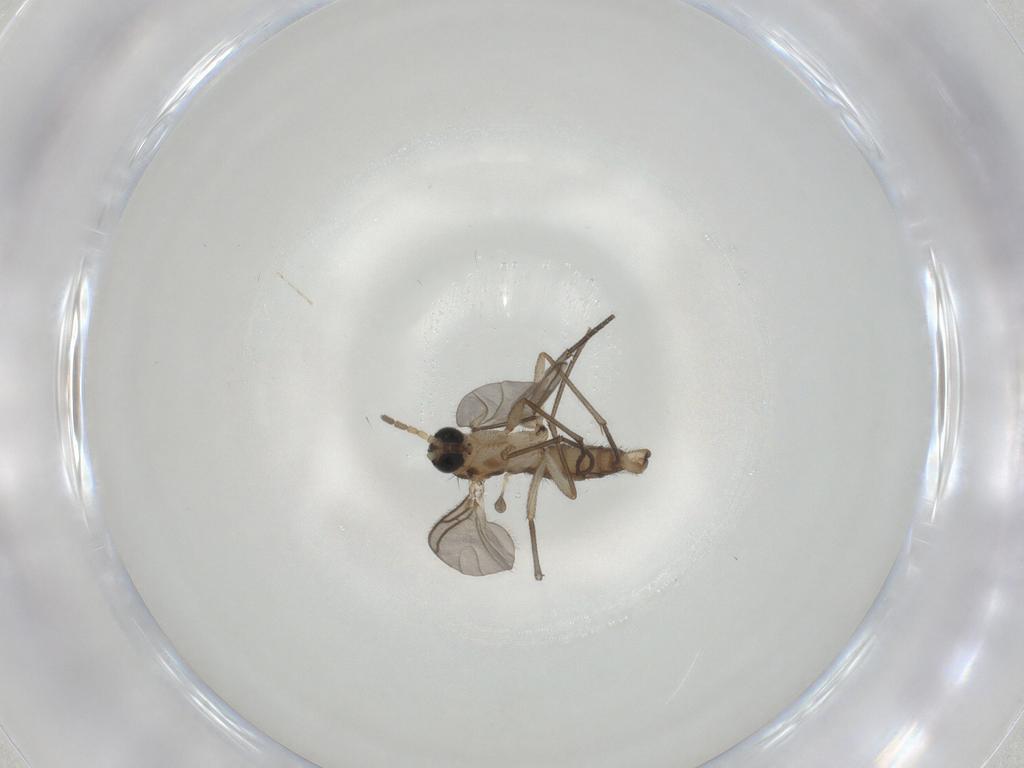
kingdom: Animalia
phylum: Arthropoda
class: Insecta
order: Diptera
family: Sciaridae
